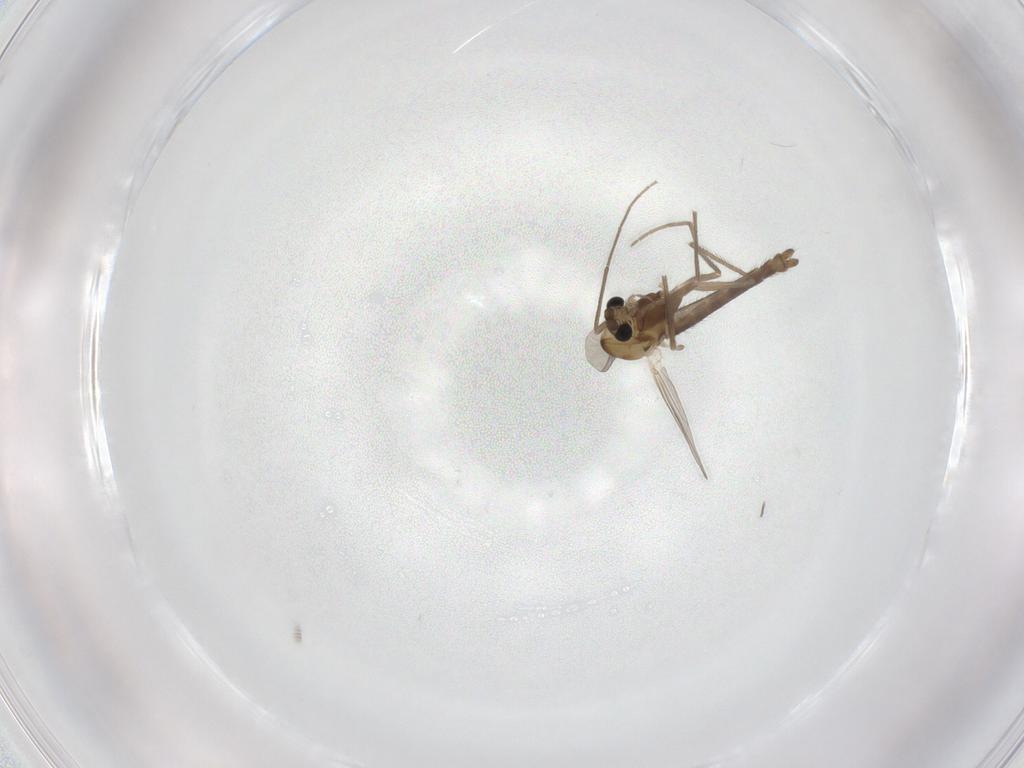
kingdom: Animalia
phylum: Arthropoda
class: Insecta
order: Diptera
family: Chironomidae
